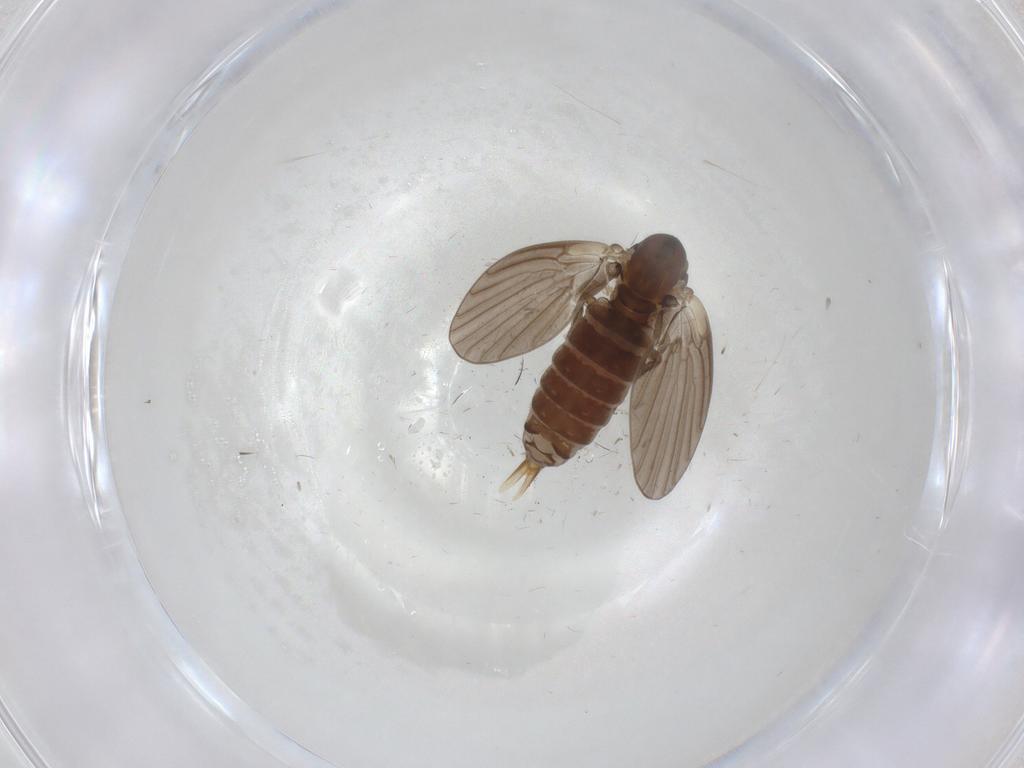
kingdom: Animalia
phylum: Arthropoda
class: Insecta
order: Diptera
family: Psychodidae
